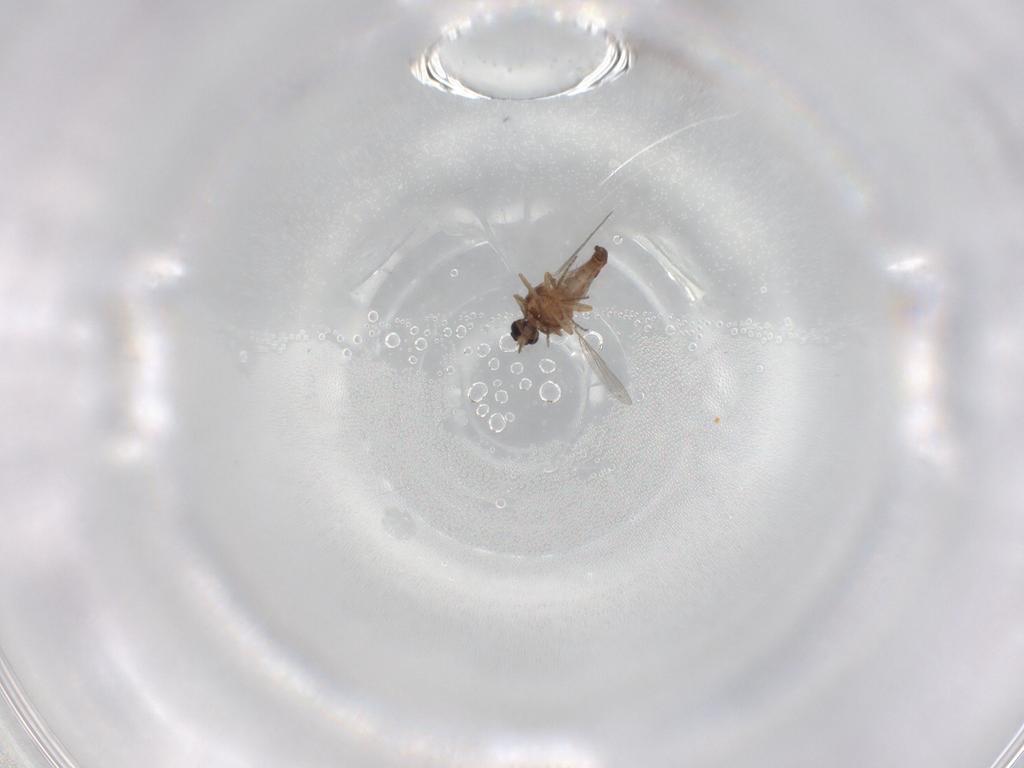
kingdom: Animalia
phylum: Arthropoda
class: Insecta
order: Diptera
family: Ceratopogonidae
